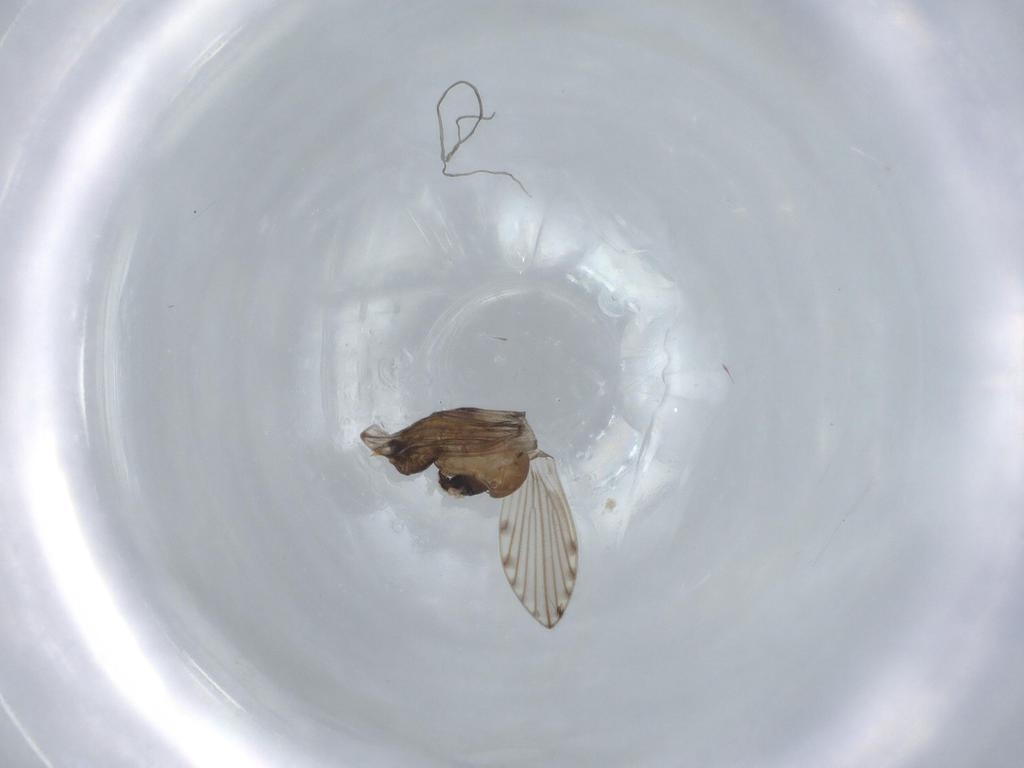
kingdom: Animalia
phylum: Arthropoda
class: Insecta
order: Diptera
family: Psychodidae
